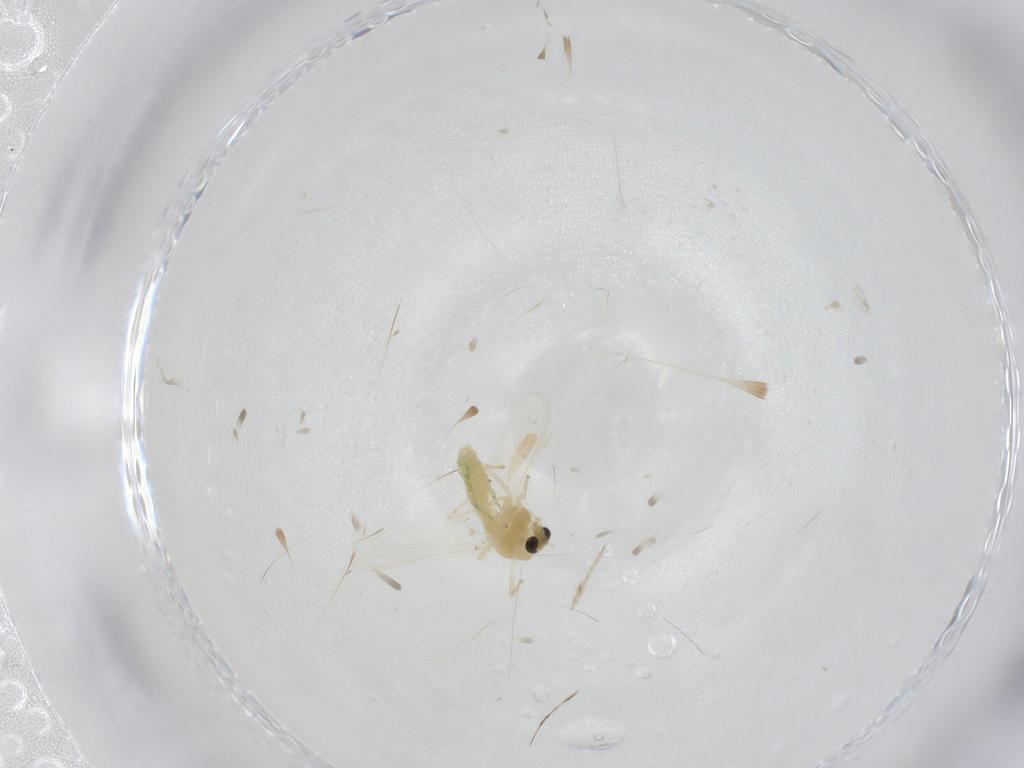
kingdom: Animalia
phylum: Arthropoda
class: Insecta
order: Diptera
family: Chironomidae
